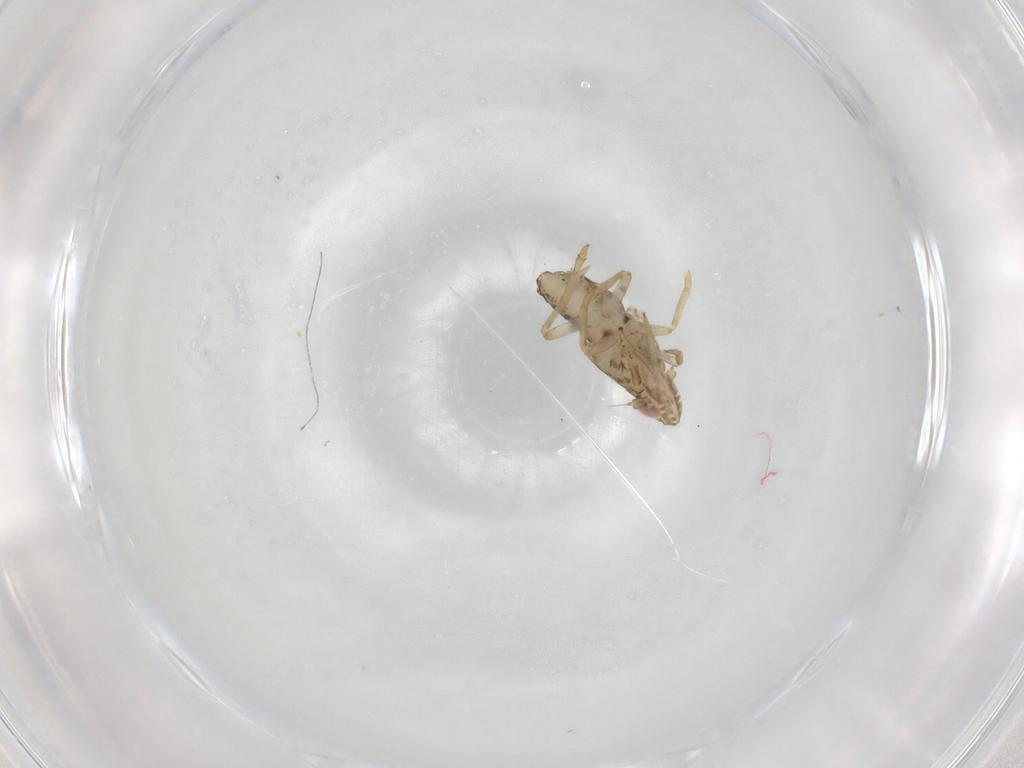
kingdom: Animalia
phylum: Arthropoda
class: Insecta
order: Hemiptera
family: Delphacidae
